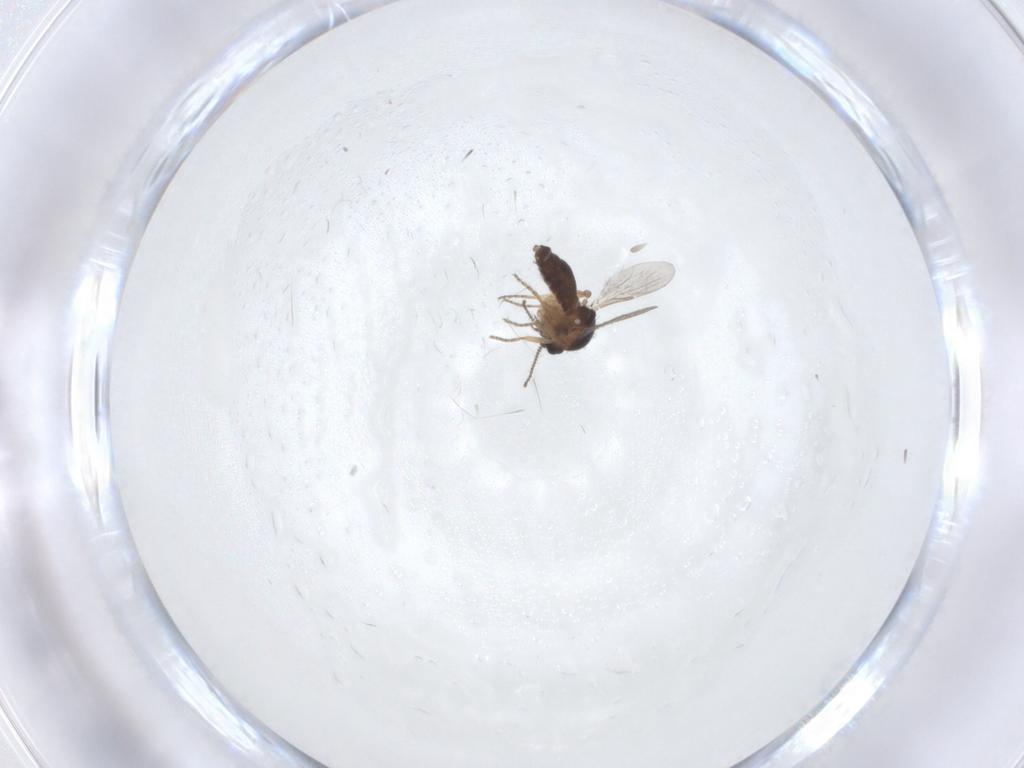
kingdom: Animalia
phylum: Arthropoda
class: Insecta
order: Diptera
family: Ceratopogonidae
